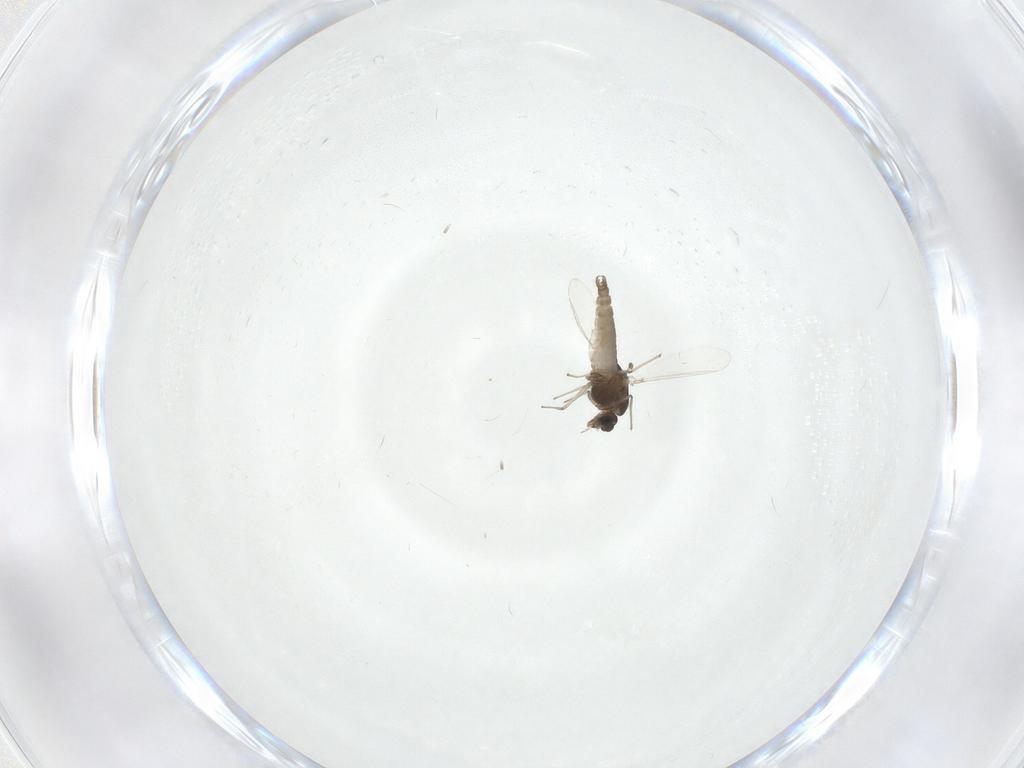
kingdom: Animalia
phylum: Arthropoda
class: Insecta
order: Diptera
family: Chironomidae
